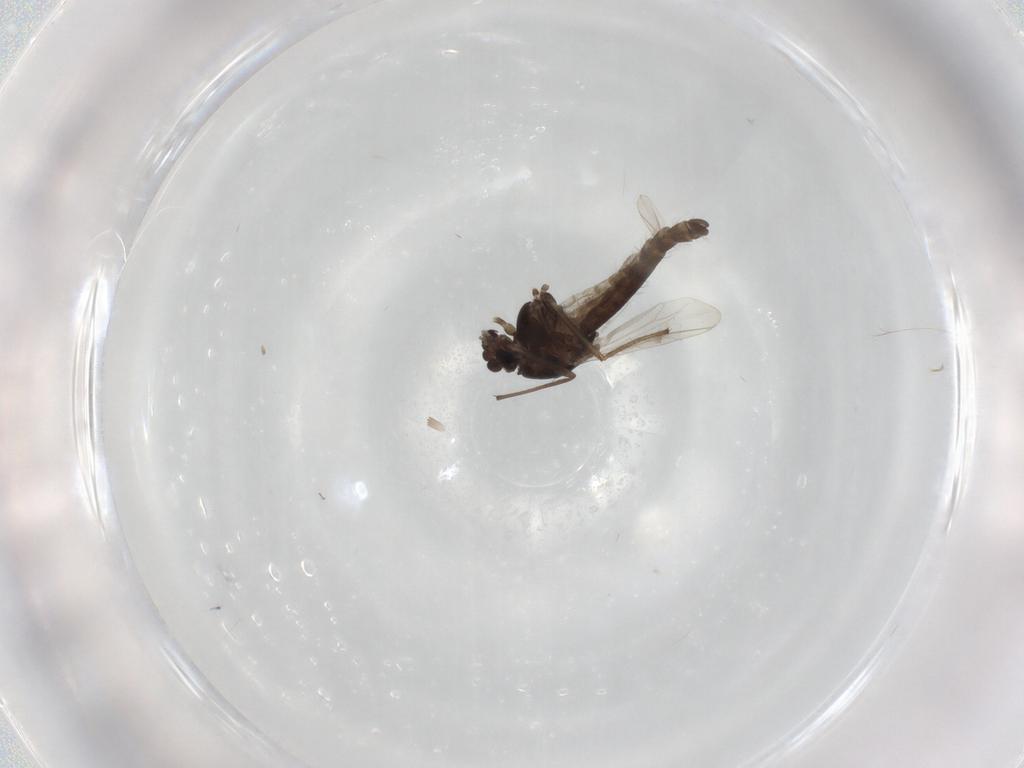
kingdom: Animalia
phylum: Arthropoda
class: Insecta
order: Diptera
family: Chironomidae
